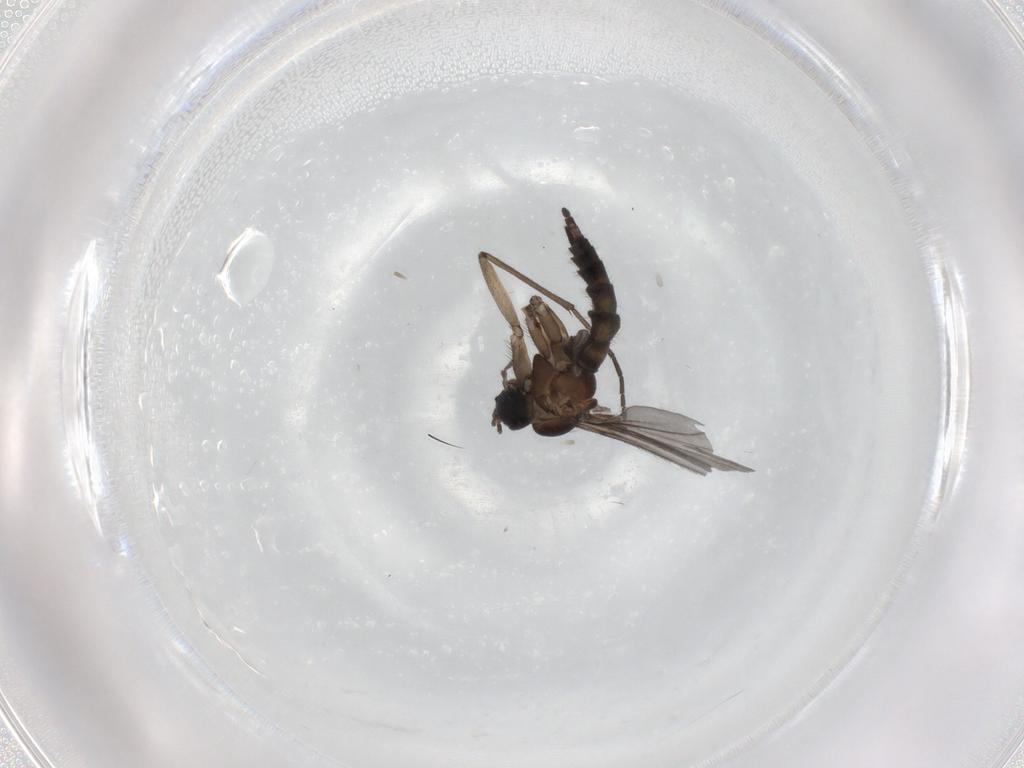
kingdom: Animalia
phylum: Arthropoda
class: Insecta
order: Diptera
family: Sciaridae
